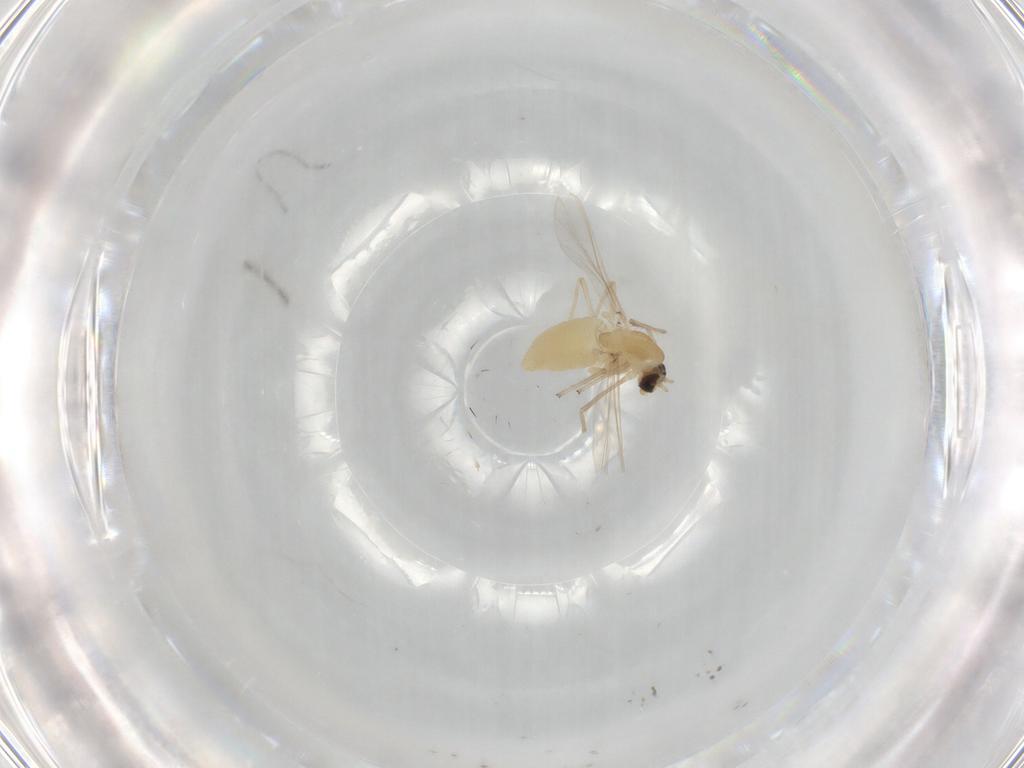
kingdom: Animalia
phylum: Arthropoda
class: Insecta
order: Diptera
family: Chironomidae
